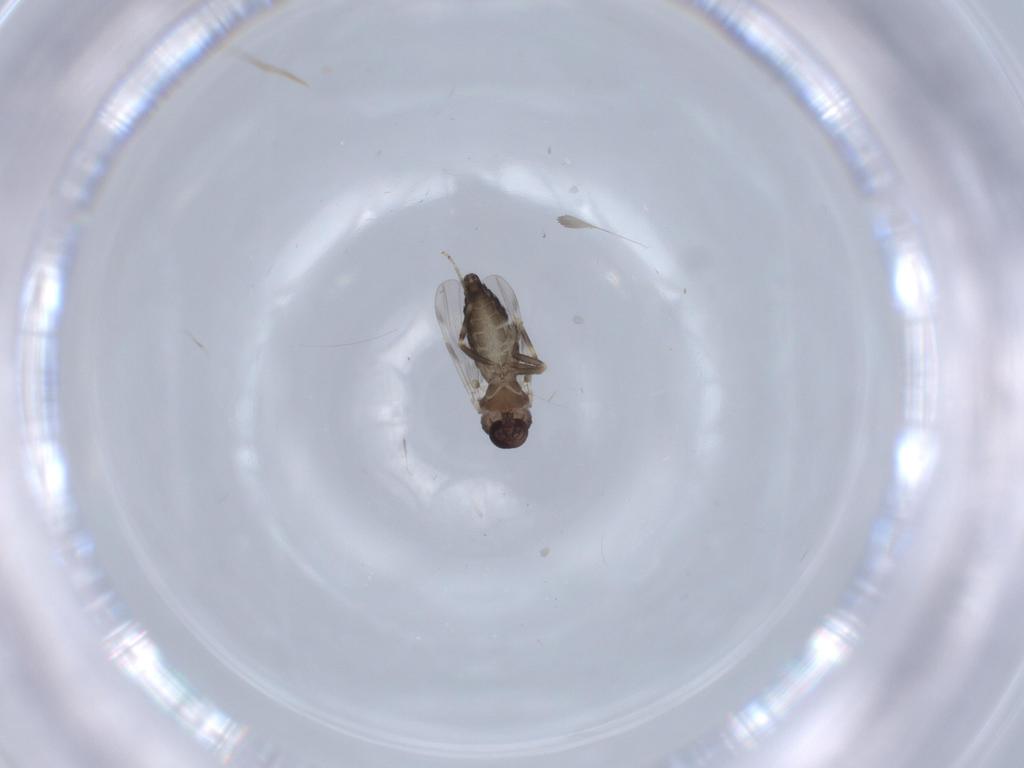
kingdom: Animalia
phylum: Arthropoda
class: Insecta
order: Diptera
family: Ceratopogonidae
